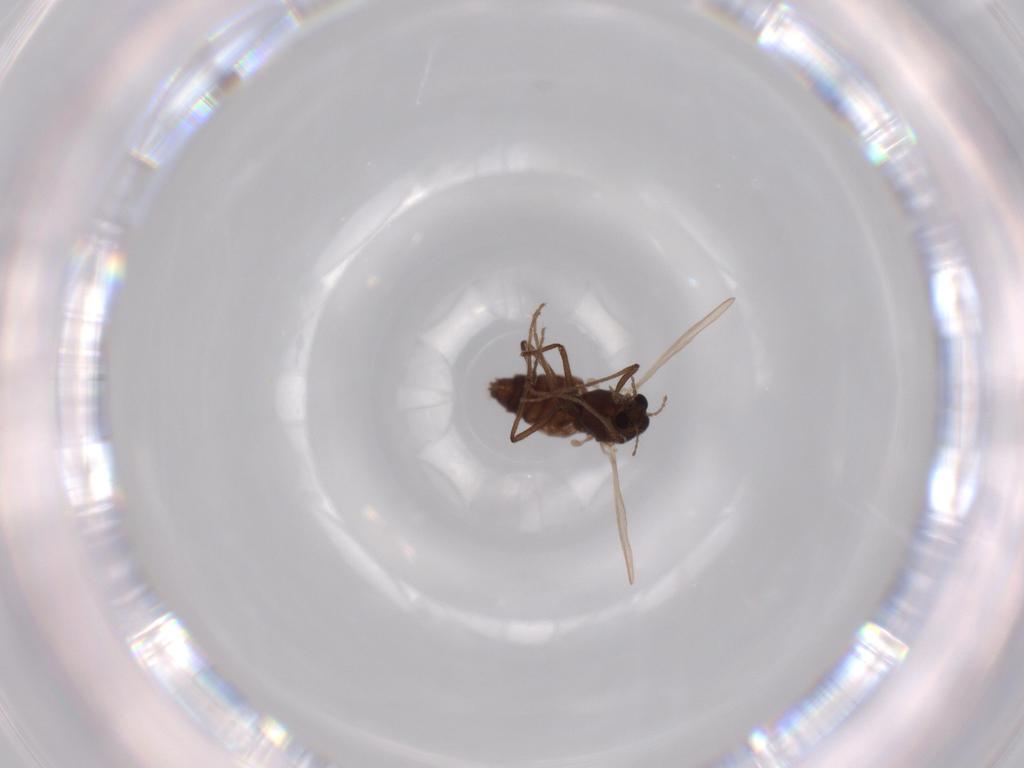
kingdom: Animalia
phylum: Arthropoda
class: Insecta
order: Diptera
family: Chironomidae
